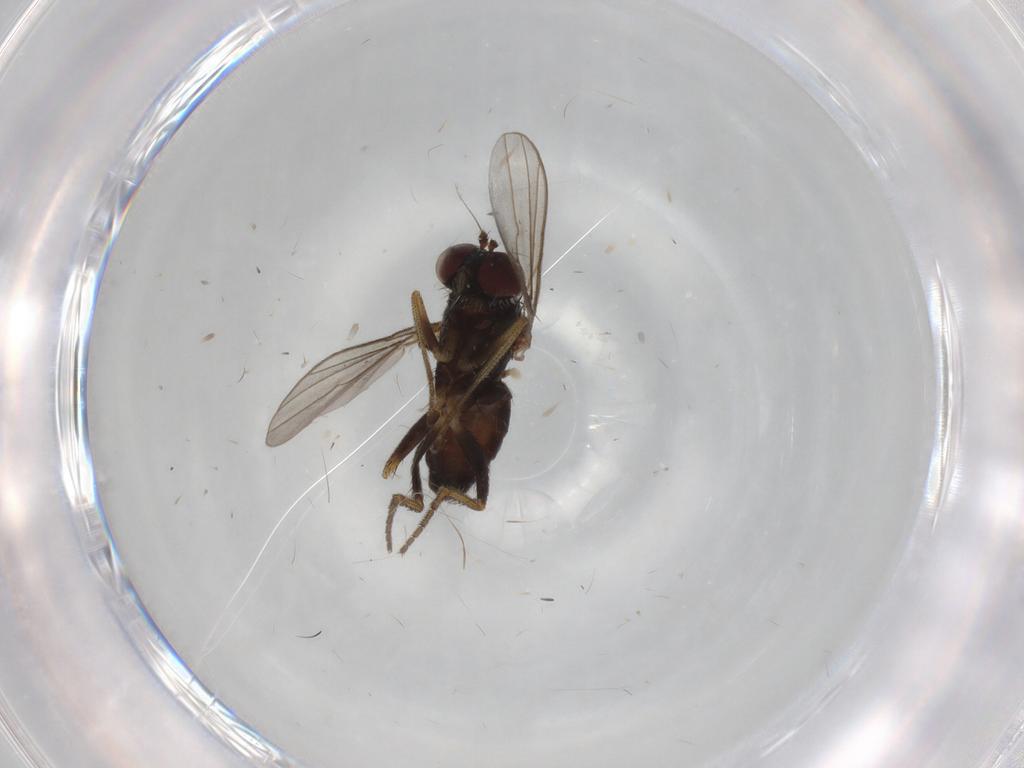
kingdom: Animalia
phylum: Arthropoda
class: Insecta
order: Diptera
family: Cecidomyiidae
